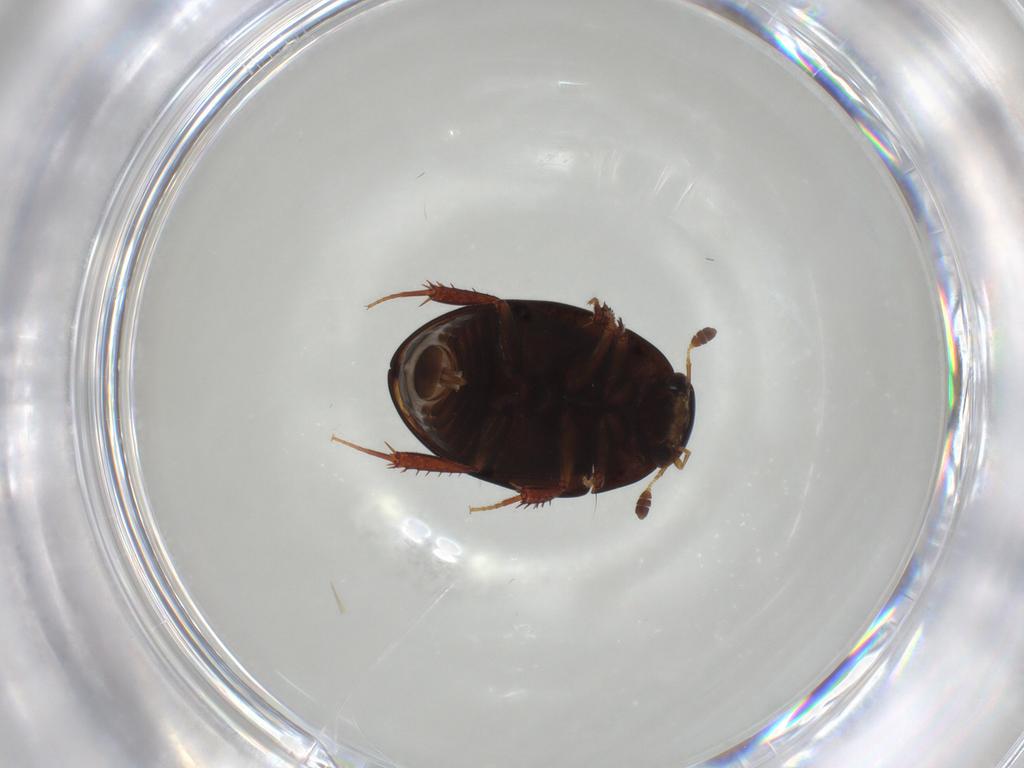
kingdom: Animalia
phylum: Arthropoda
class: Insecta
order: Coleoptera
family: Hydrophilidae
